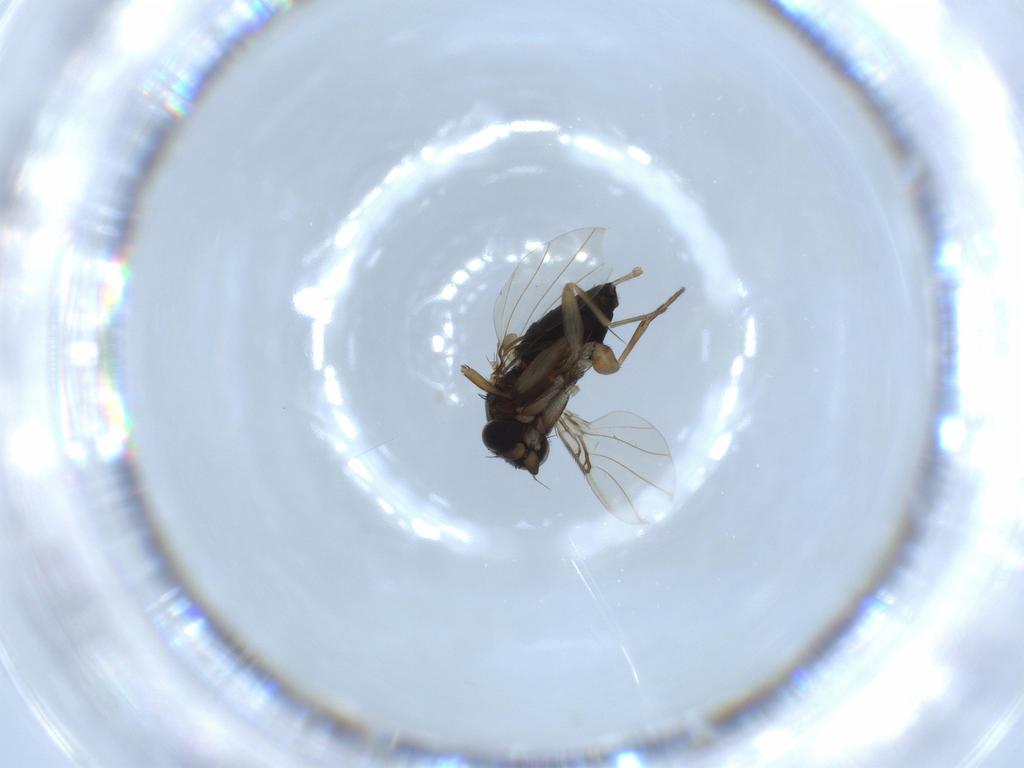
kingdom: Animalia
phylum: Arthropoda
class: Insecta
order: Diptera
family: Phoridae
